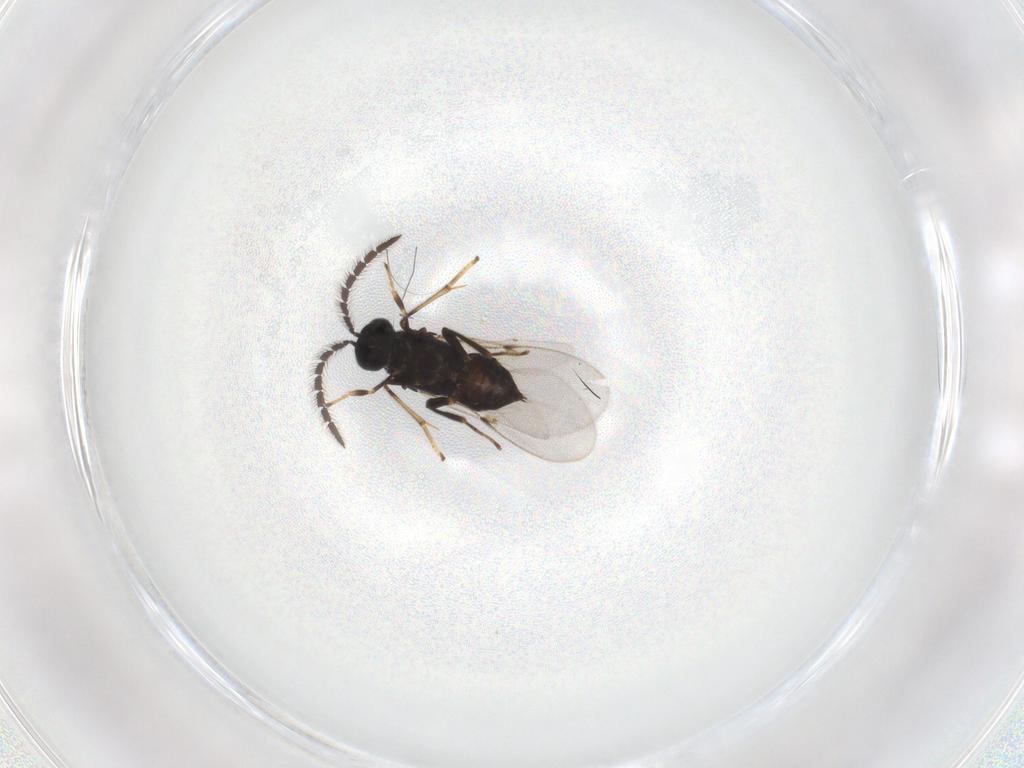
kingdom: Animalia
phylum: Arthropoda
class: Insecta
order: Hymenoptera
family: Encyrtidae
